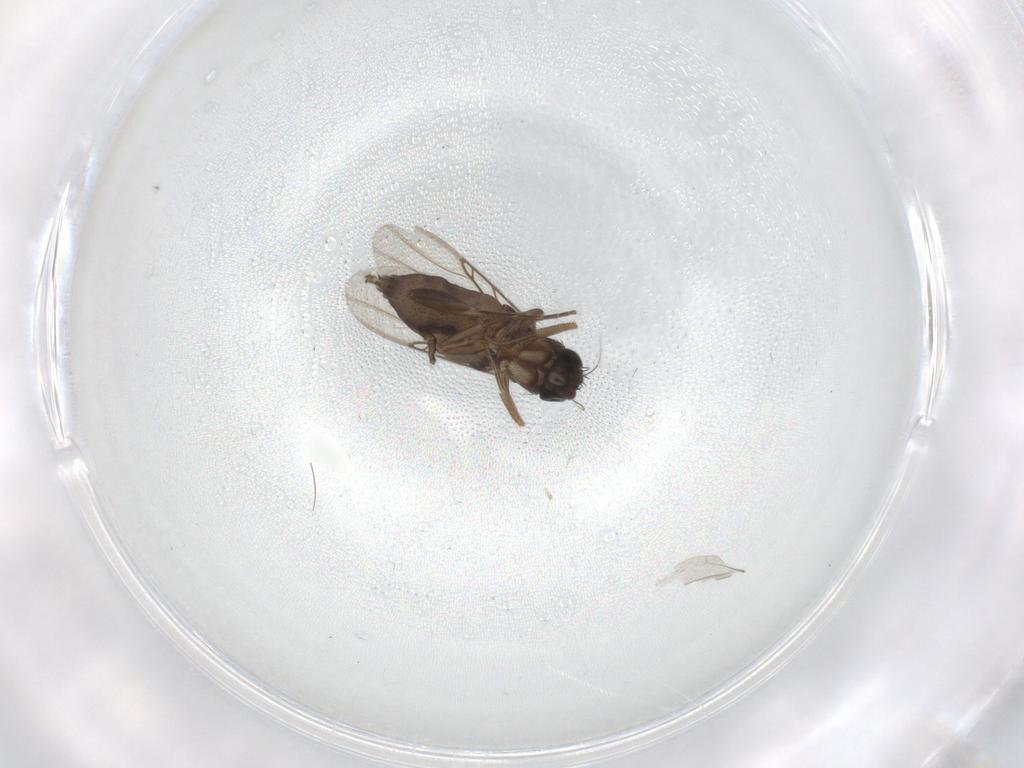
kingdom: Animalia
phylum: Arthropoda
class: Insecta
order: Diptera
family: Phoridae
